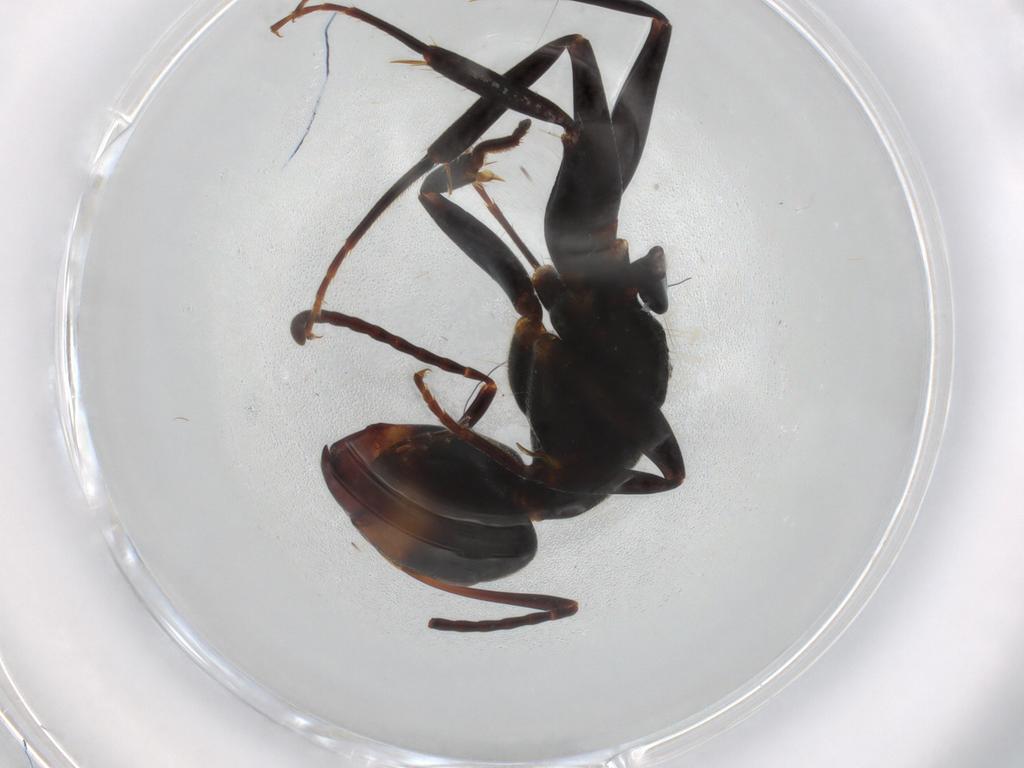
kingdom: Animalia
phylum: Arthropoda
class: Insecta
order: Hymenoptera
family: Formicidae
